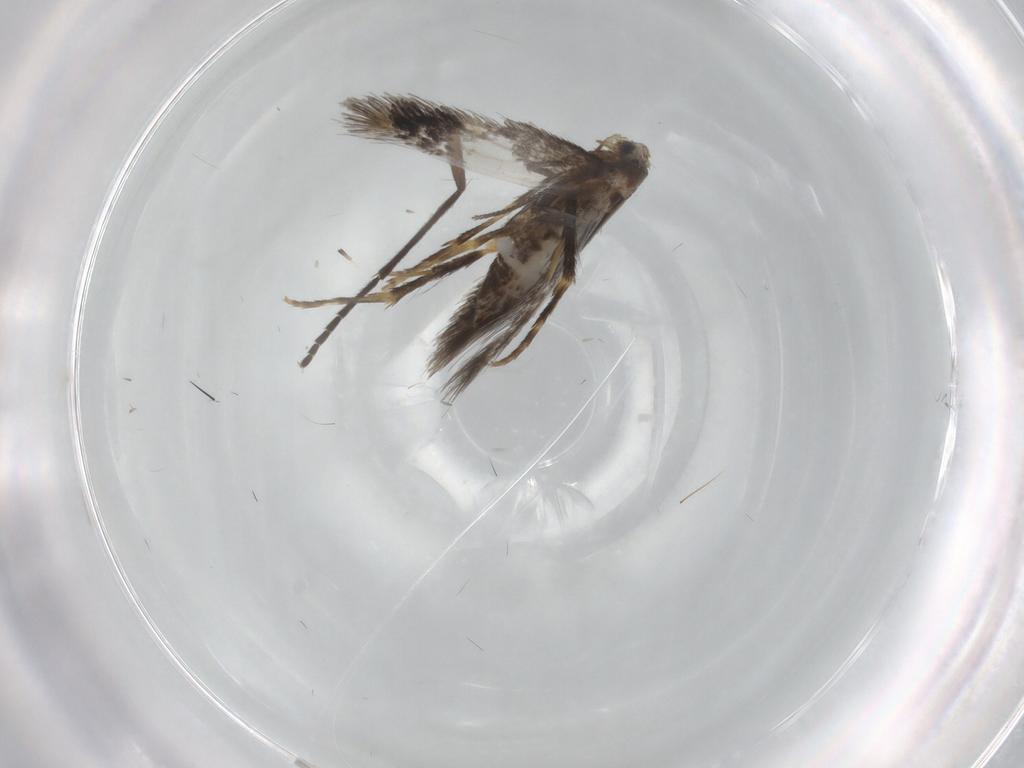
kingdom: Animalia
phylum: Arthropoda
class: Insecta
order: Lepidoptera
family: Nepticulidae
